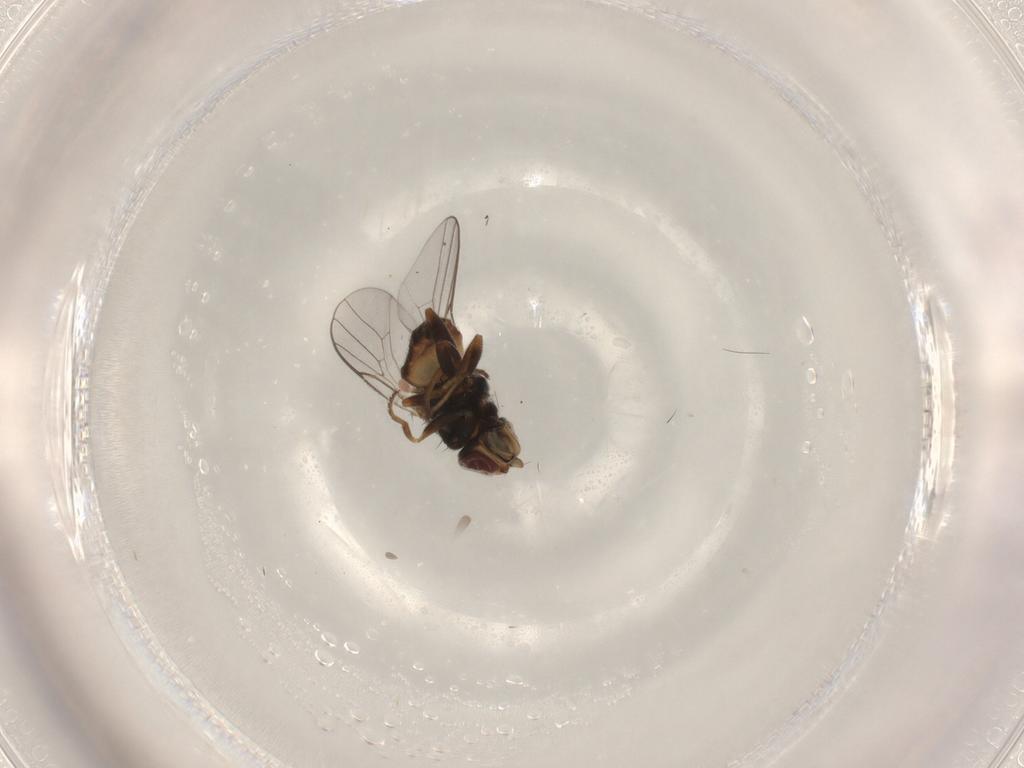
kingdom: Animalia
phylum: Arthropoda
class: Insecta
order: Diptera
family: Chloropidae
